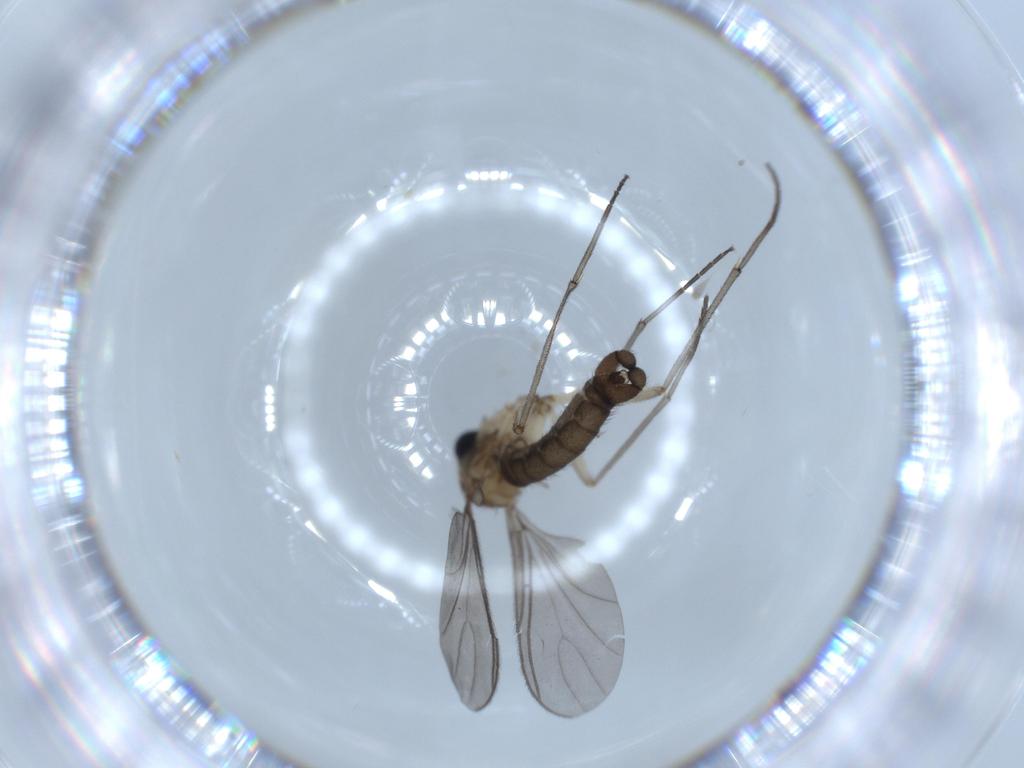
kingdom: Animalia
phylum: Arthropoda
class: Insecta
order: Diptera
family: Sciaridae
